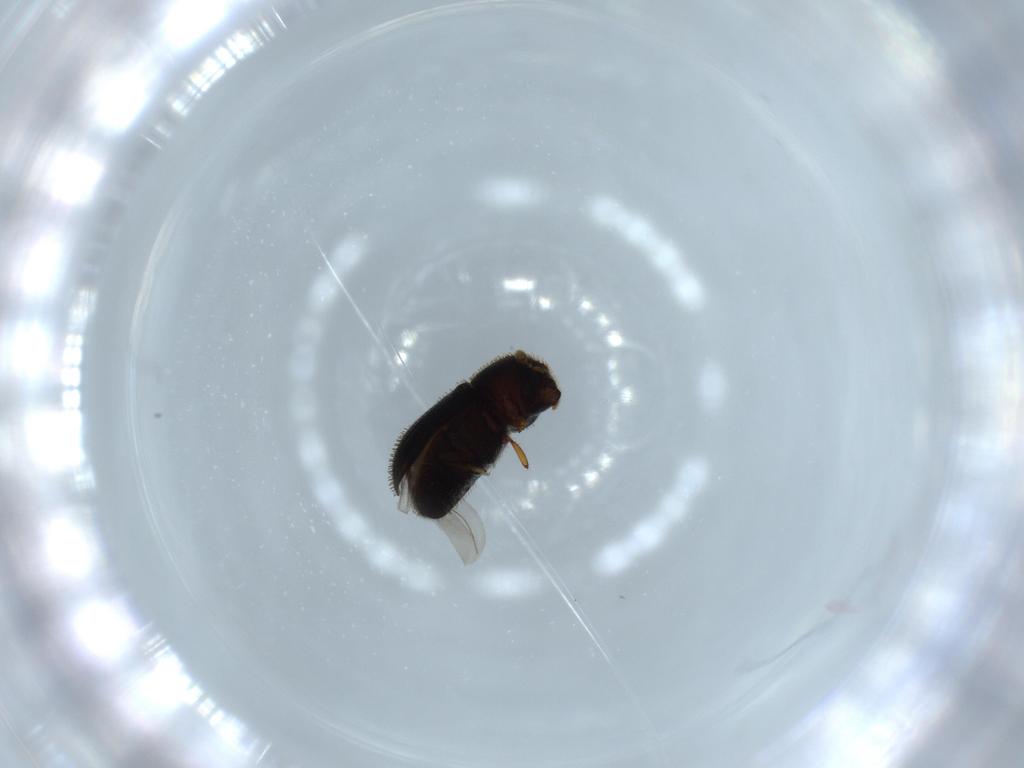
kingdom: Animalia
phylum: Arthropoda
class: Insecta
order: Coleoptera
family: Curculionidae
